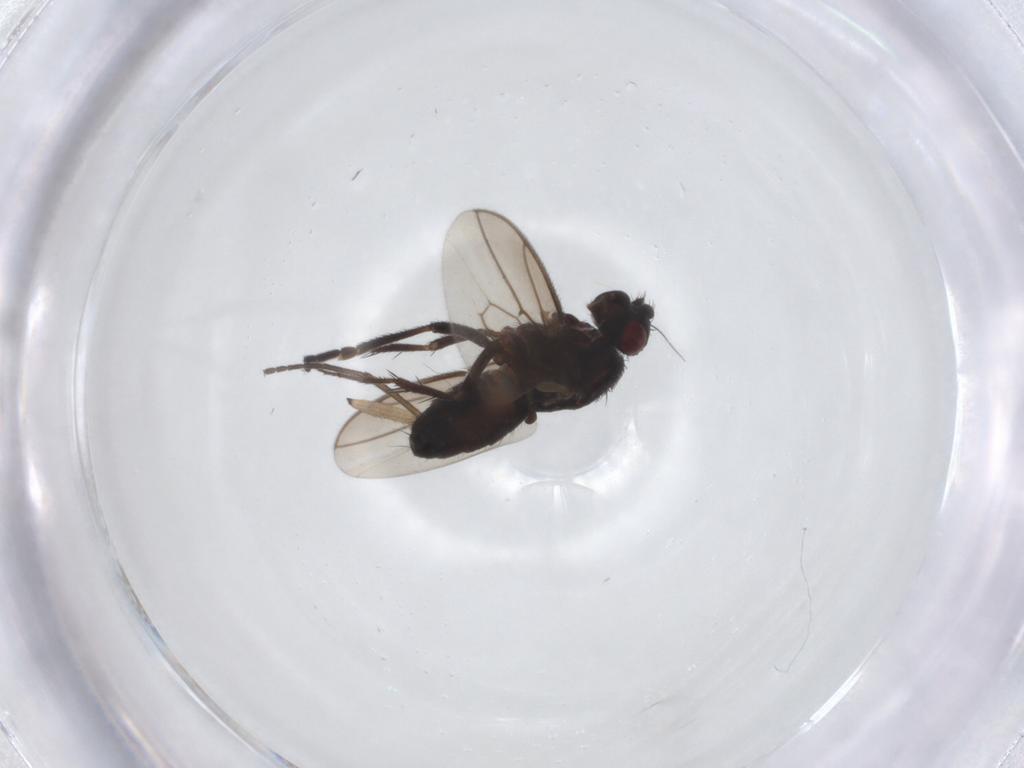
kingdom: Animalia
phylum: Arthropoda
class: Insecta
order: Diptera
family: Sphaeroceridae
